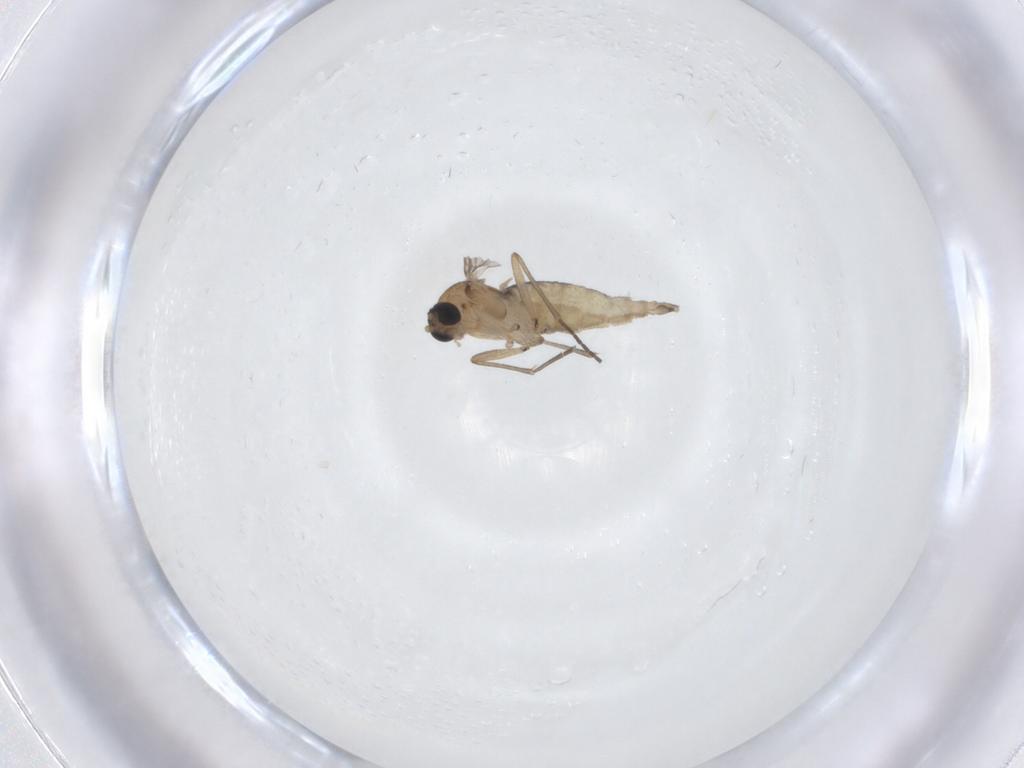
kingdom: Animalia
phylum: Arthropoda
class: Insecta
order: Diptera
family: Sciaridae
